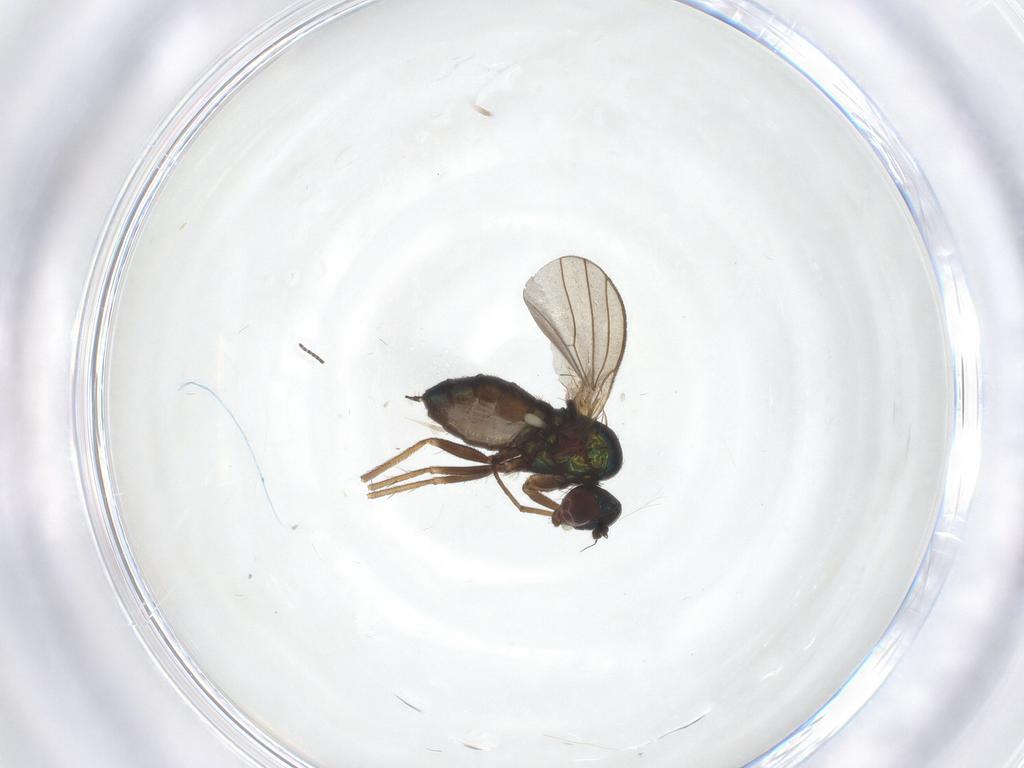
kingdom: Animalia
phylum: Arthropoda
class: Insecta
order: Diptera
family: Dolichopodidae
